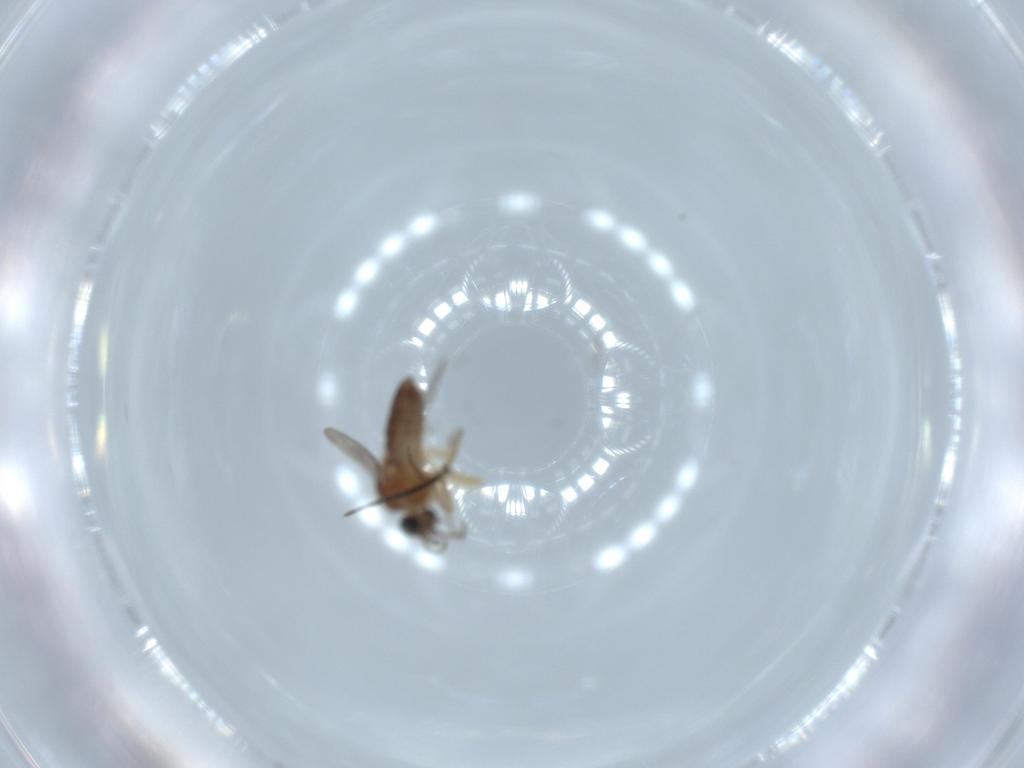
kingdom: Animalia
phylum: Arthropoda
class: Insecta
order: Diptera
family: Ceratopogonidae
